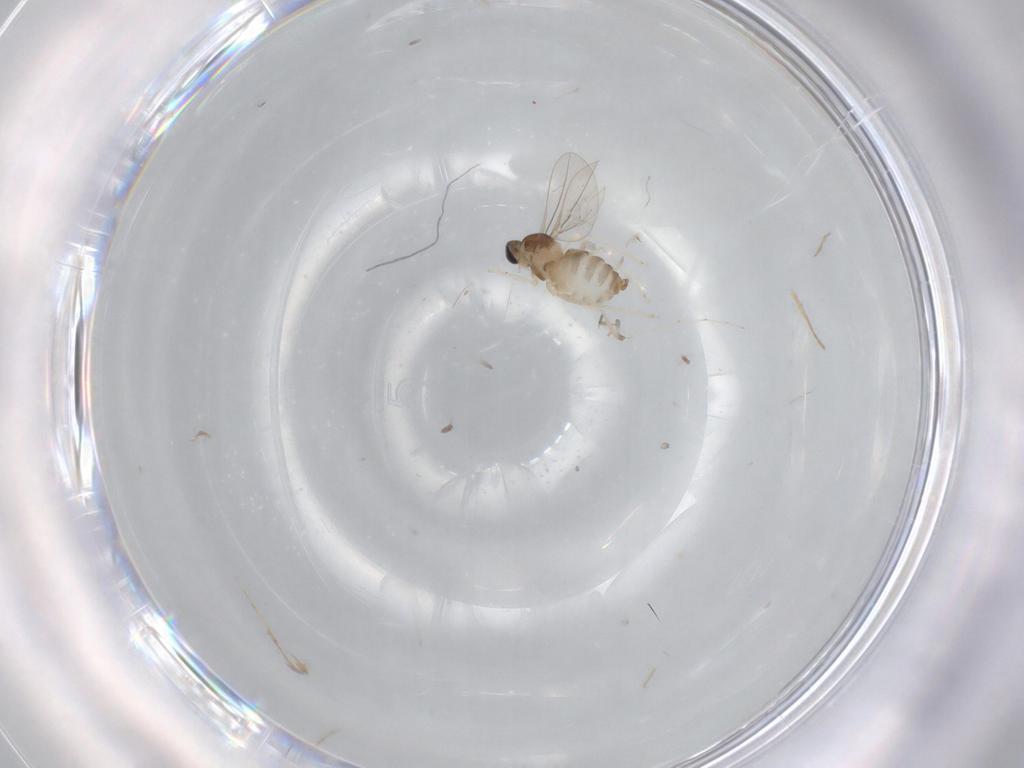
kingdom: Animalia
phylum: Arthropoda
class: Insecta
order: Diptera
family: Cecidomyiidae
